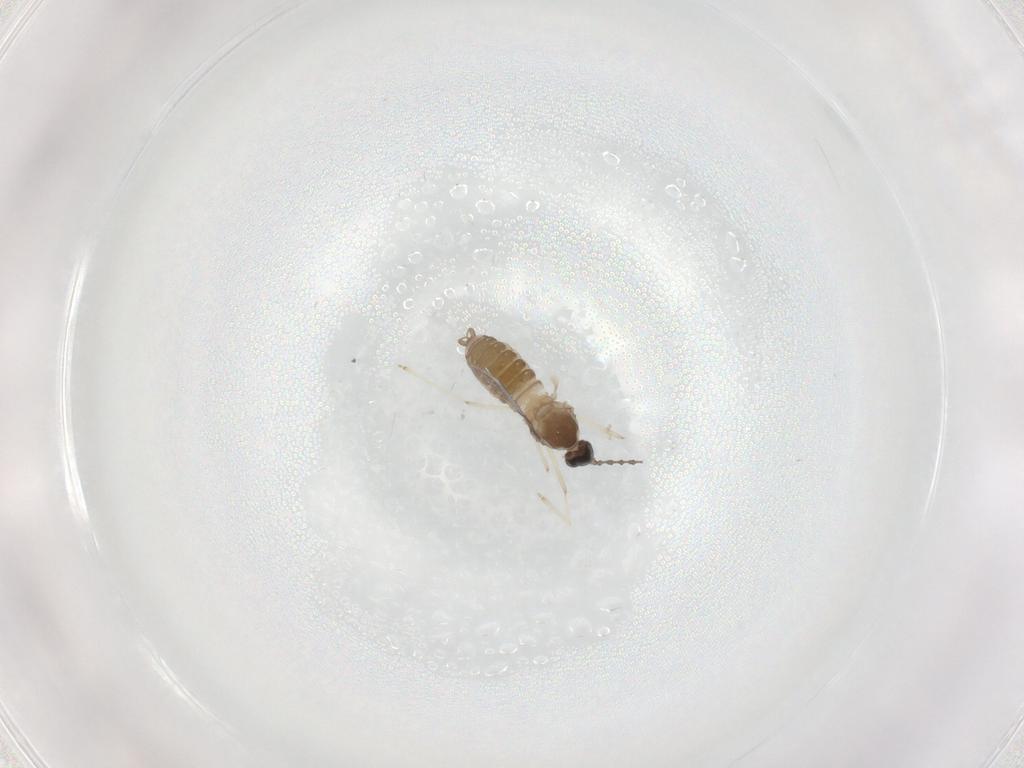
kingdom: Animalia
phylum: Arthropoda
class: Insecta
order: Diptera
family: Cecidomyiidae
